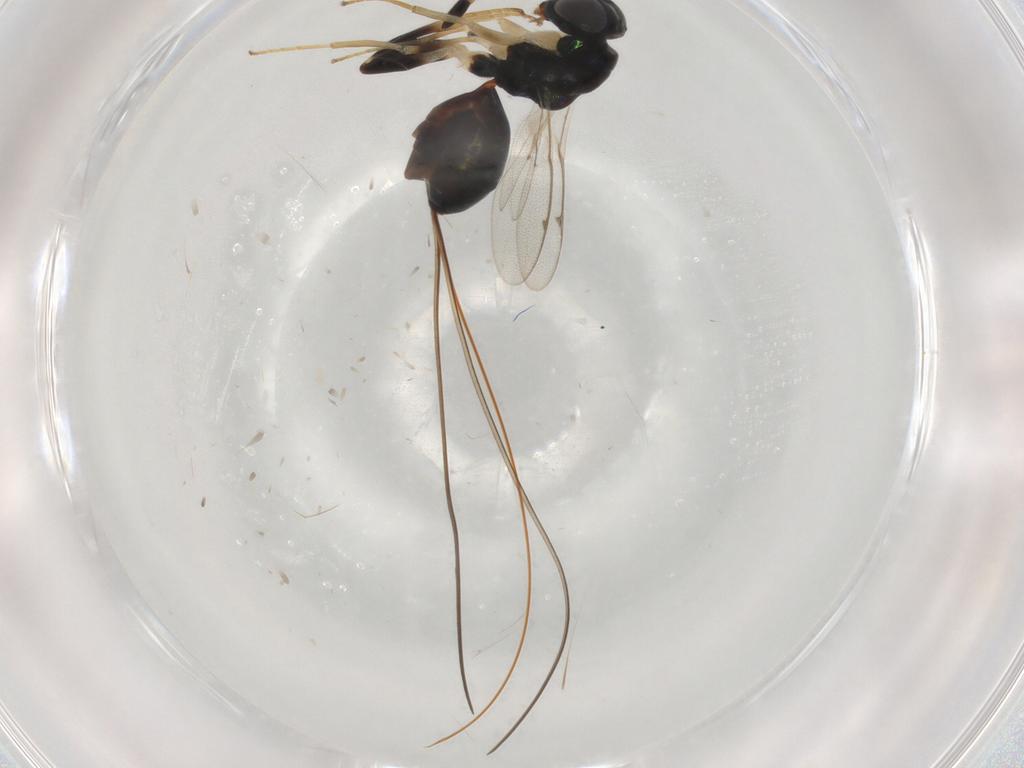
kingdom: Animalia
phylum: Arthropoda
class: Insecta
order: Hymenoptera
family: Torymidae
